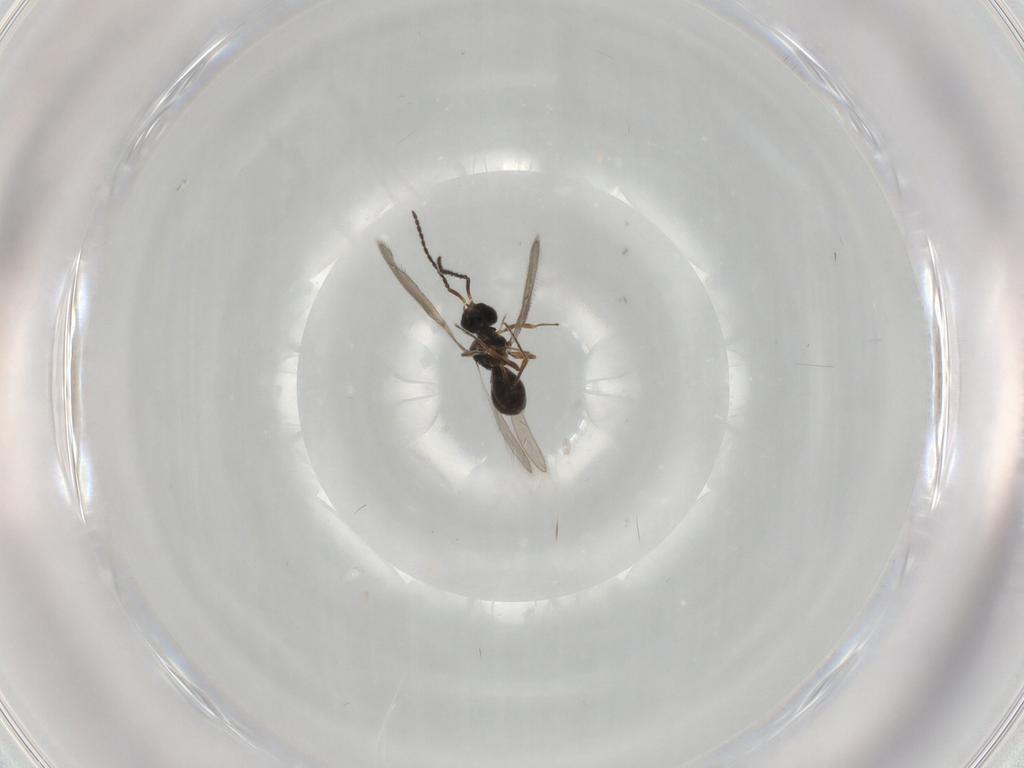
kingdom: Animalia
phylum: Arthropoda
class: Insecta
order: Hymenoptera
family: Scelionidae
